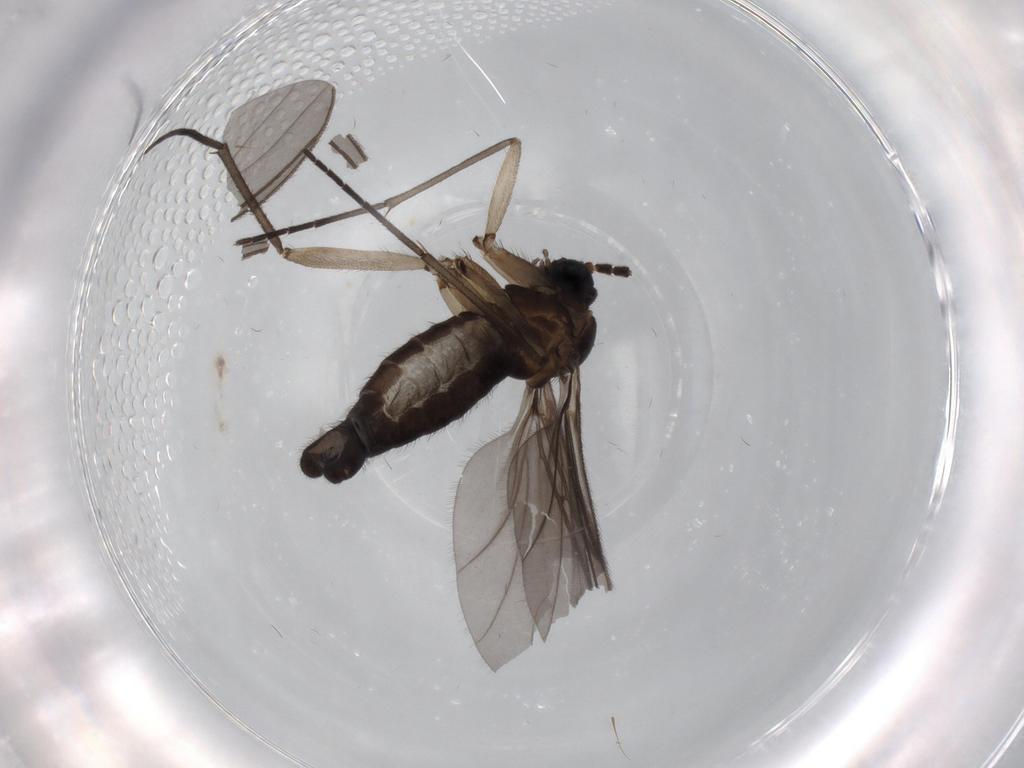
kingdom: Animalia
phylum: Arthropoda
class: Insecta
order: Diptera
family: Sciaridae
